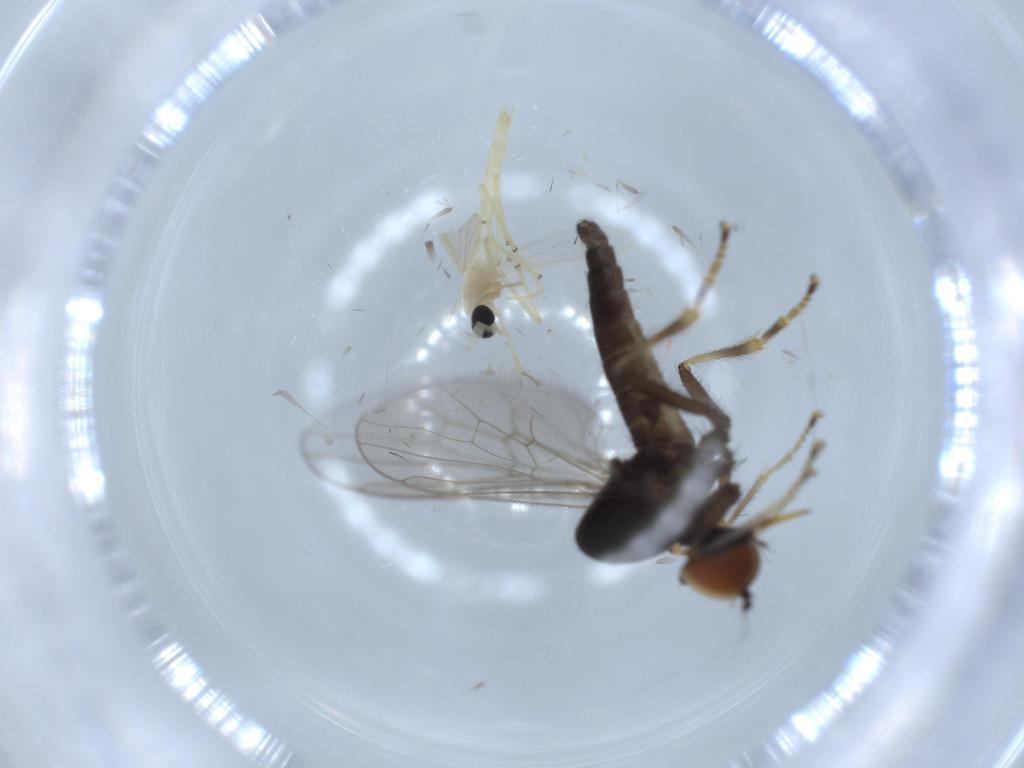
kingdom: Animalia
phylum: Arthropoda
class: Insecta
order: Diptera
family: Hybotidae
